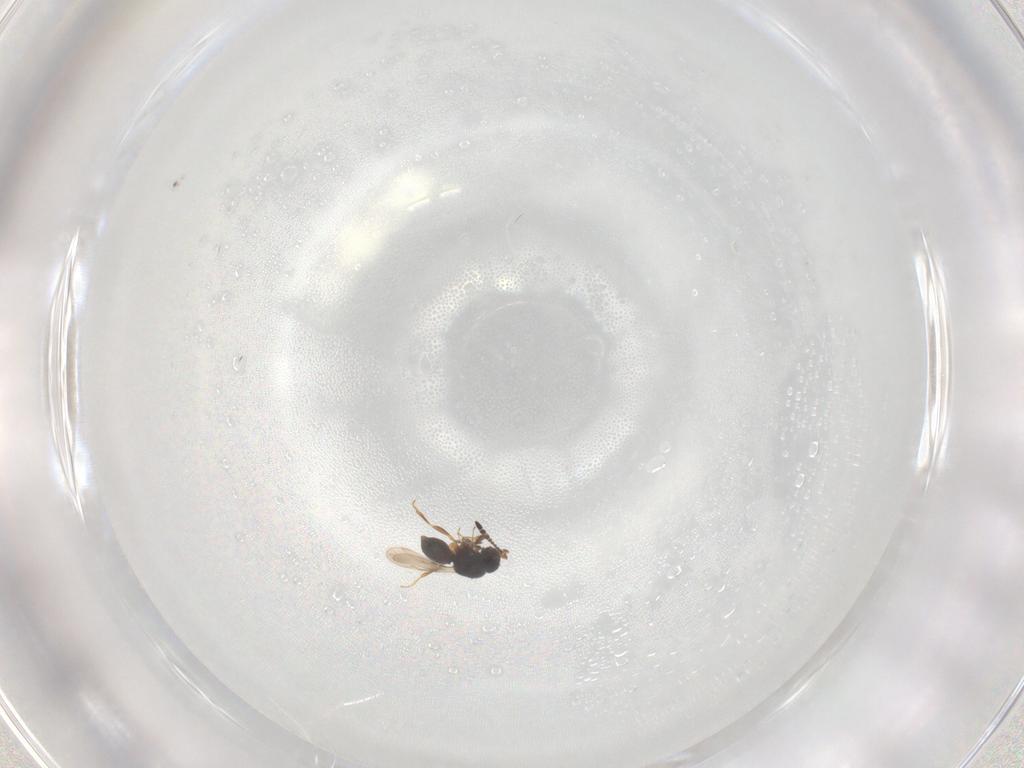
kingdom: Animalia
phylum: Arthropoda
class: Insecta
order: Hymenoptera
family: Ceraphronidae
